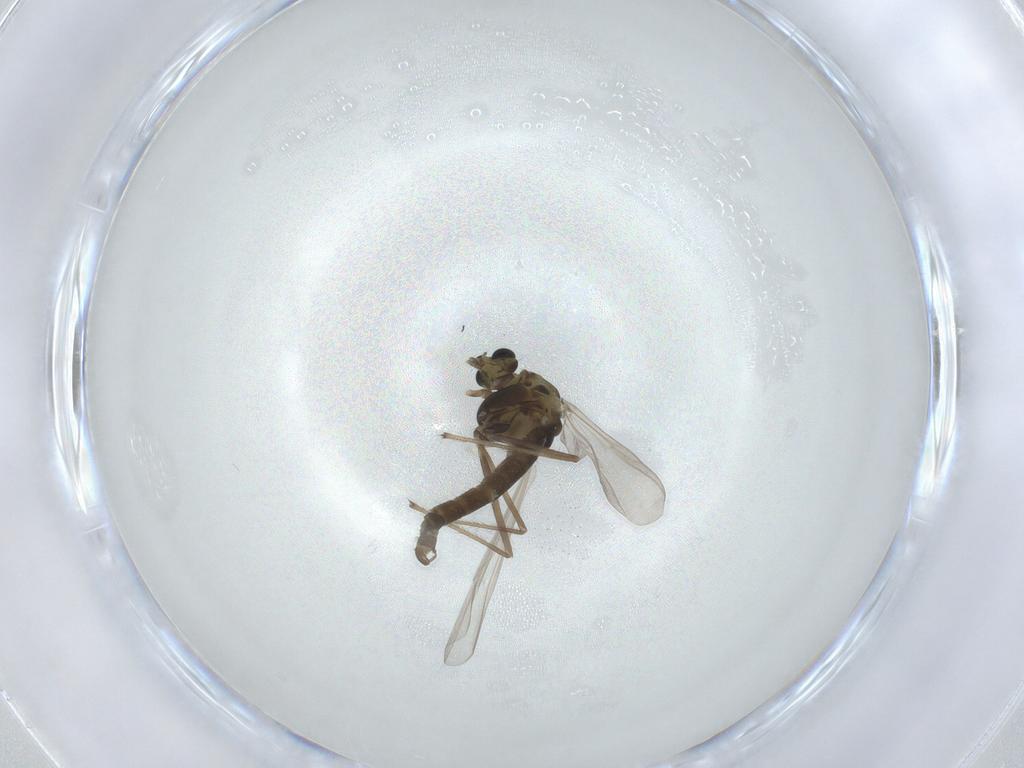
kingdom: Animalia
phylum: Arthropoda
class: Insecta
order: Diptera
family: Chironomidae
